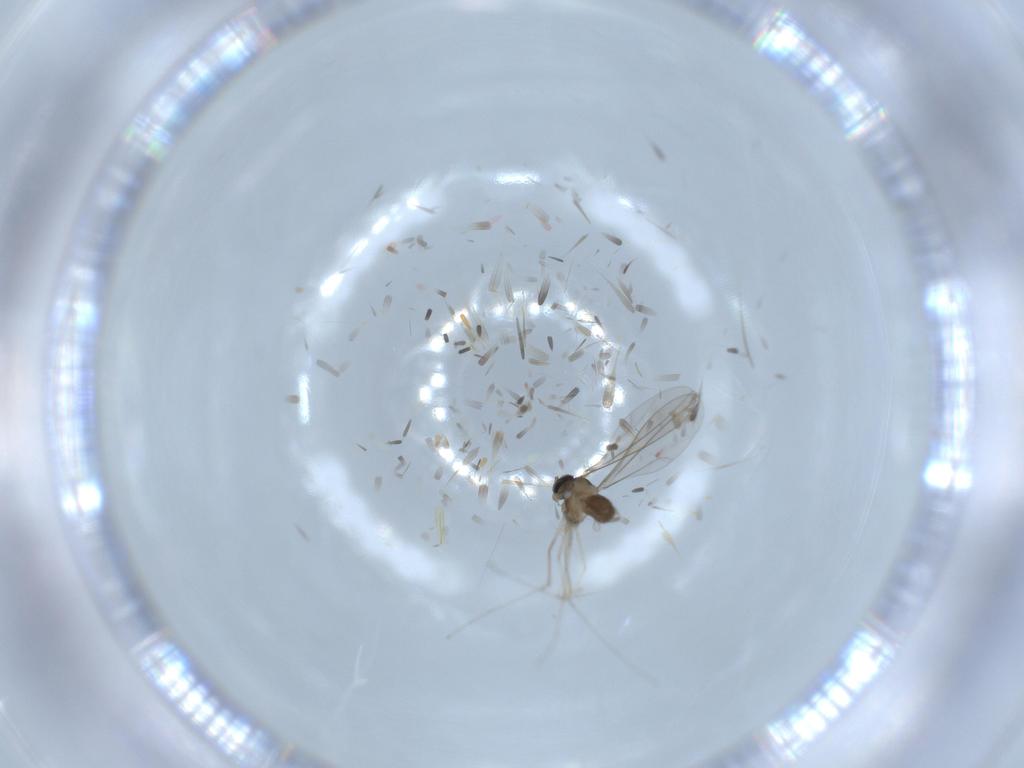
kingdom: Animalia
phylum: Arthropoda
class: Insecta
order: Diptera
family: Cecidomyiidae
